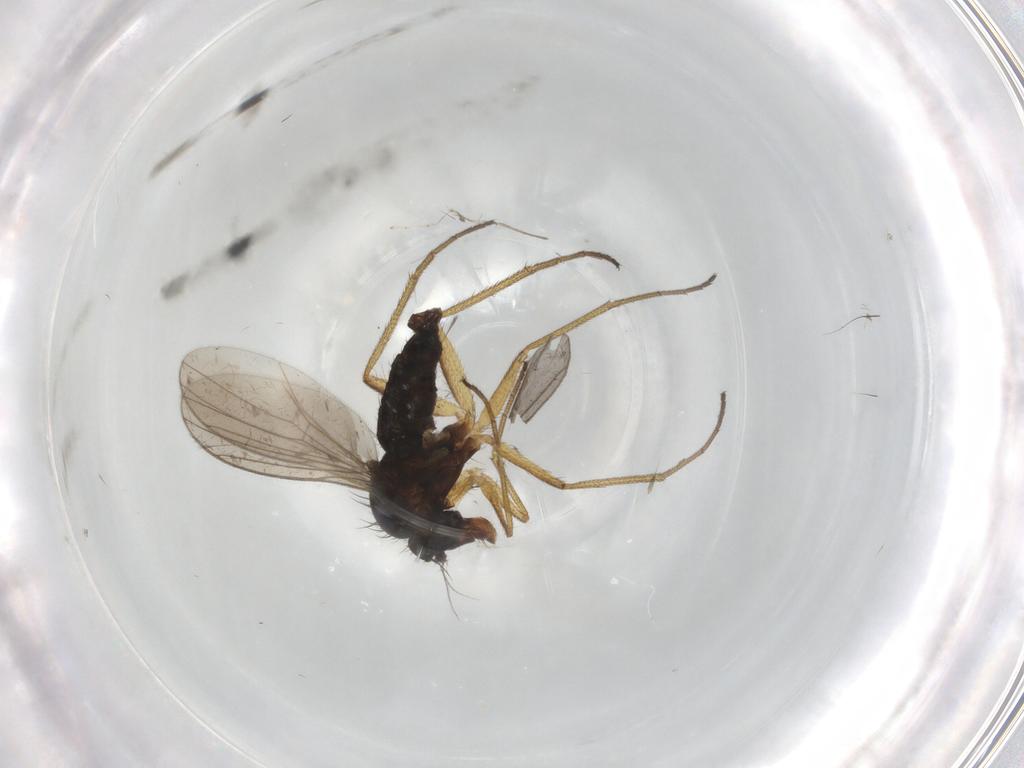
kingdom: Animalia
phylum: Arthropoda
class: Insecta
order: Diptera
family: Dolichopodidae
